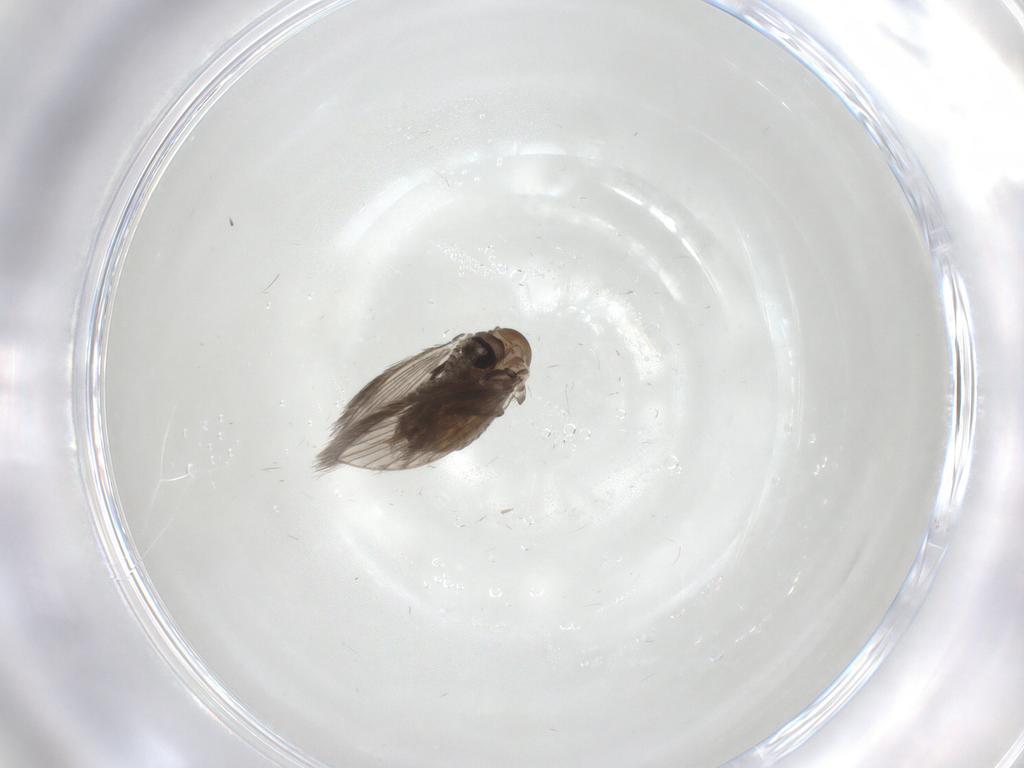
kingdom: Animalia
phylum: Arthropoda
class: Insecta
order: Diptera
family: Psychodidae
